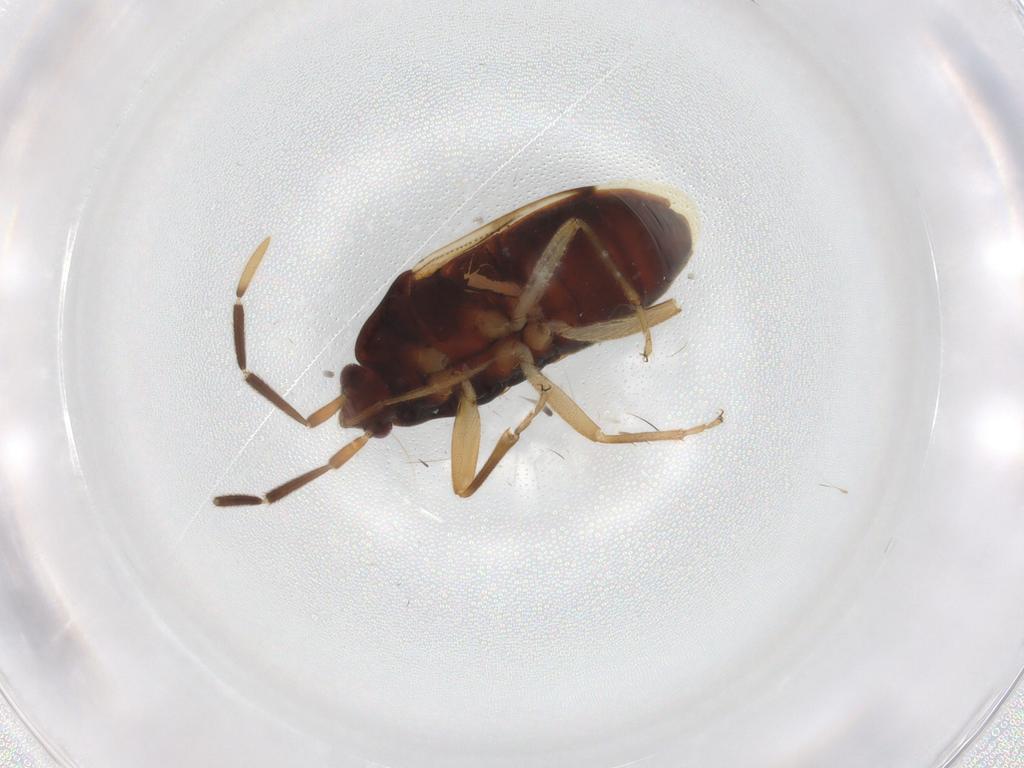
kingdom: Animalia
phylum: Arthropoda
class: Insecta
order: Hemiptera
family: Rhyparochromidae
